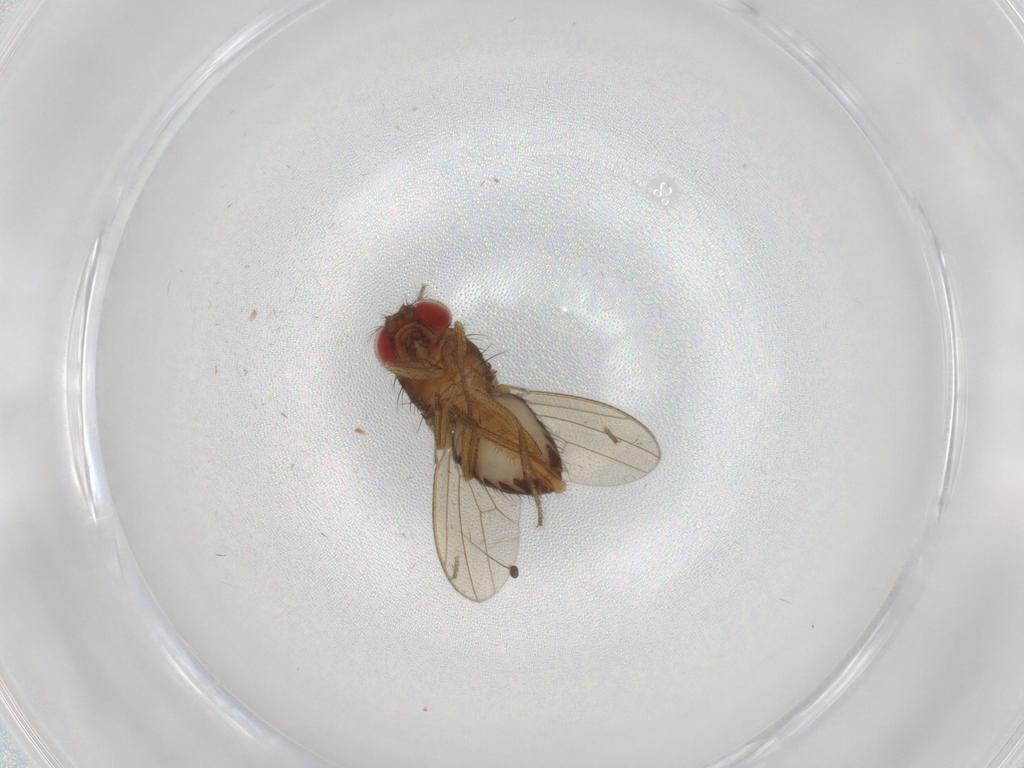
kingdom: Animalia
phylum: Arthropoda
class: Insecta
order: Diptera
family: Drosophilidae
